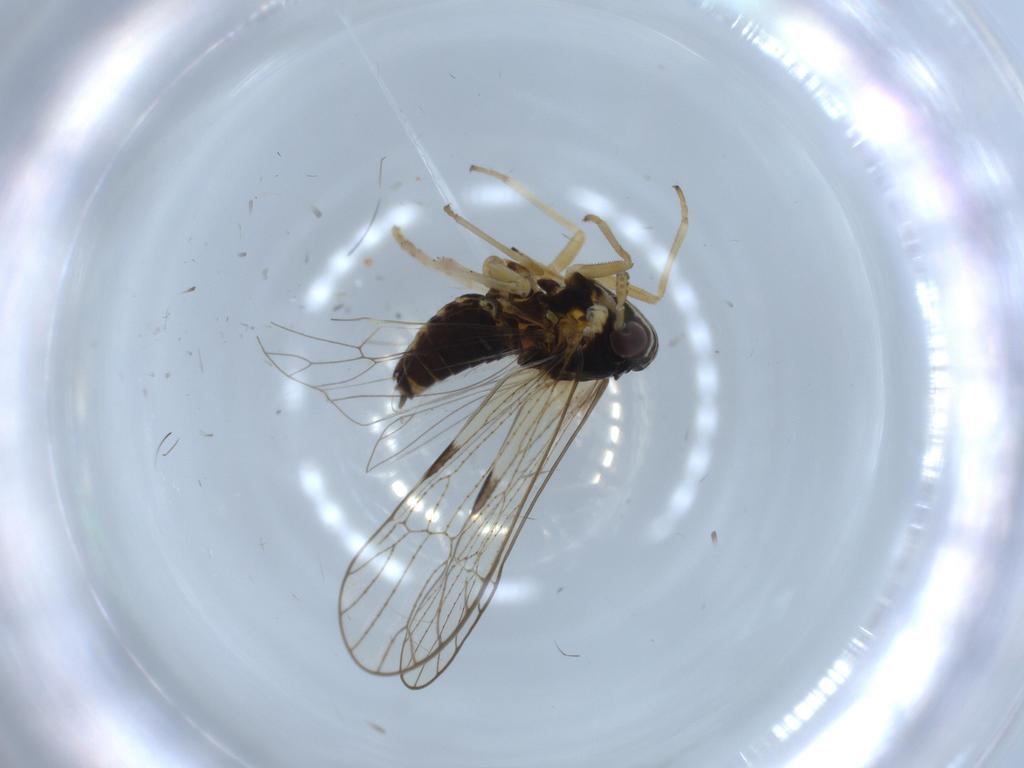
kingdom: Animalia
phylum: Arthropoda
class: Insecta
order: Hemiptera
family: Pyrrhocoridae
